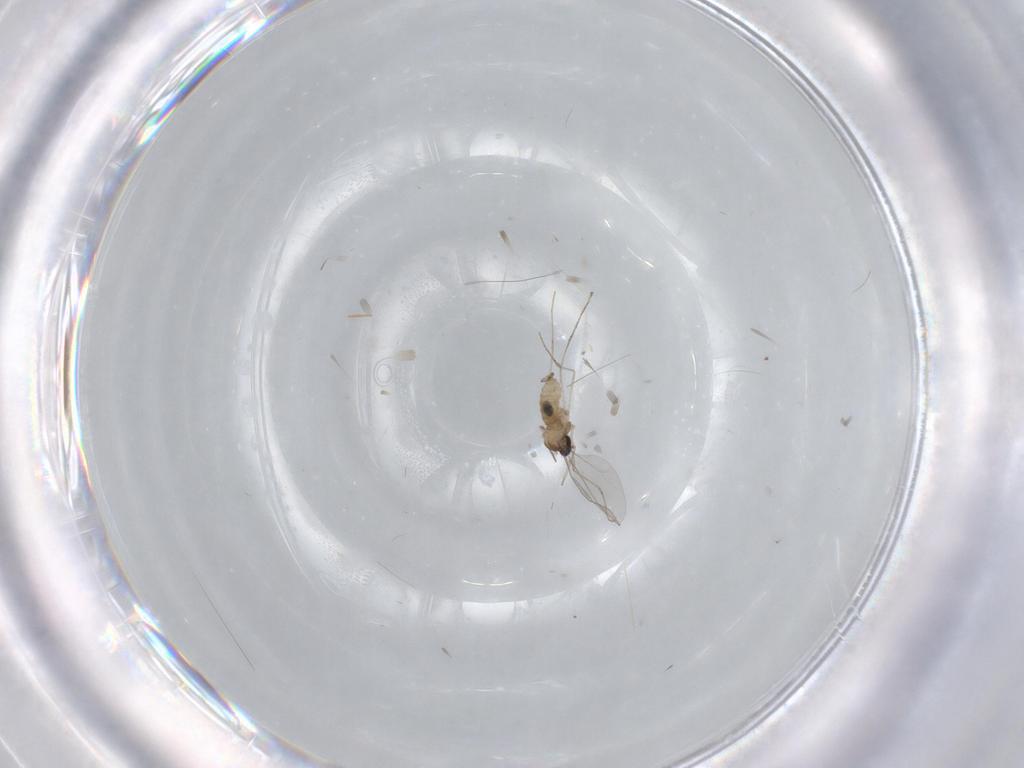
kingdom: Animalia
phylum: Arthropoda
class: Insecta
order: Diptera
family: Cecidomyiidae
